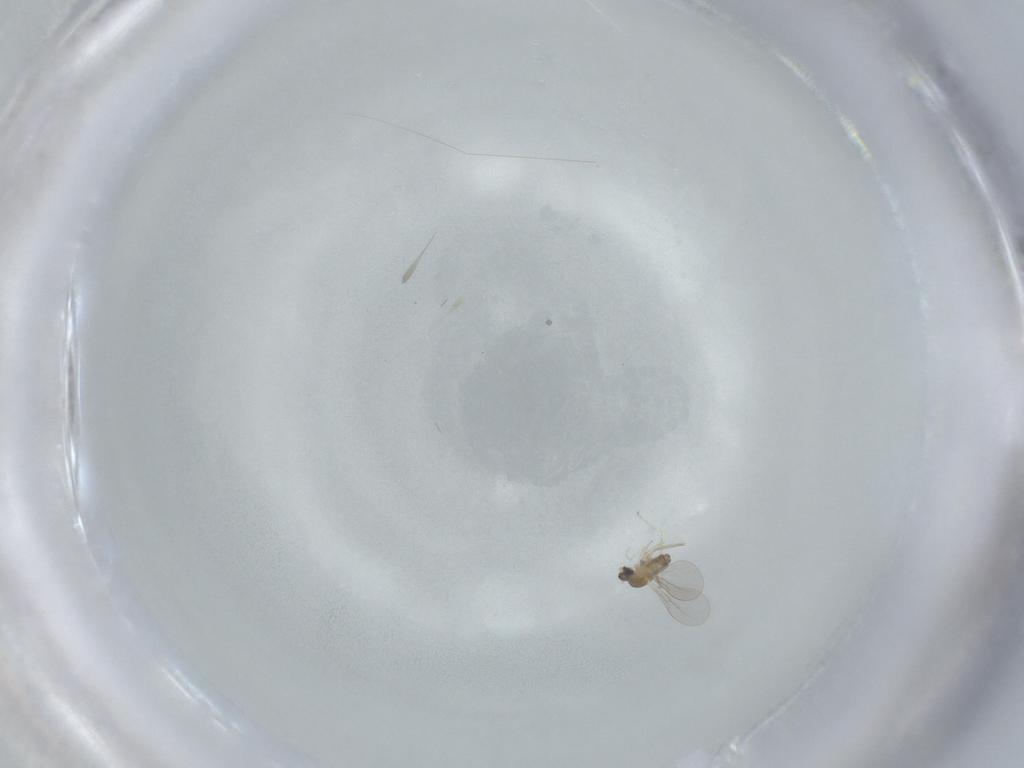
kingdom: Animalia
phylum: Arthropoda
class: Insecta
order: Diptera
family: Cecidomyiidae
